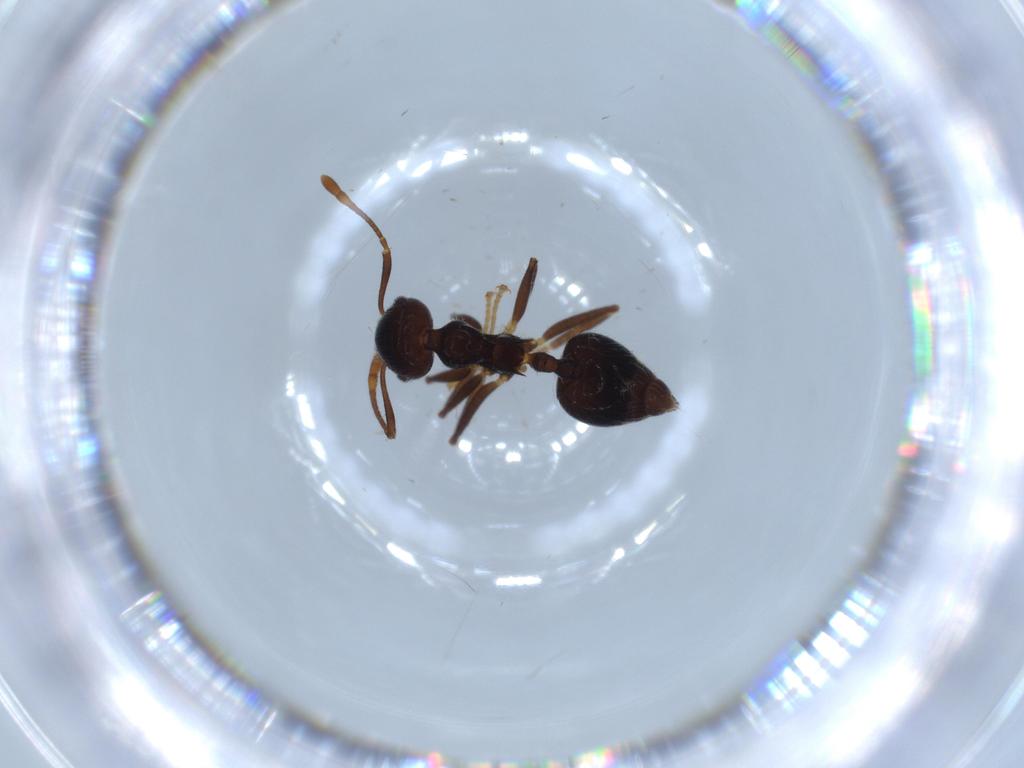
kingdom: Animalia
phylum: Arthropoda
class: Insecta
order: Hymenoptera
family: Formicidae
